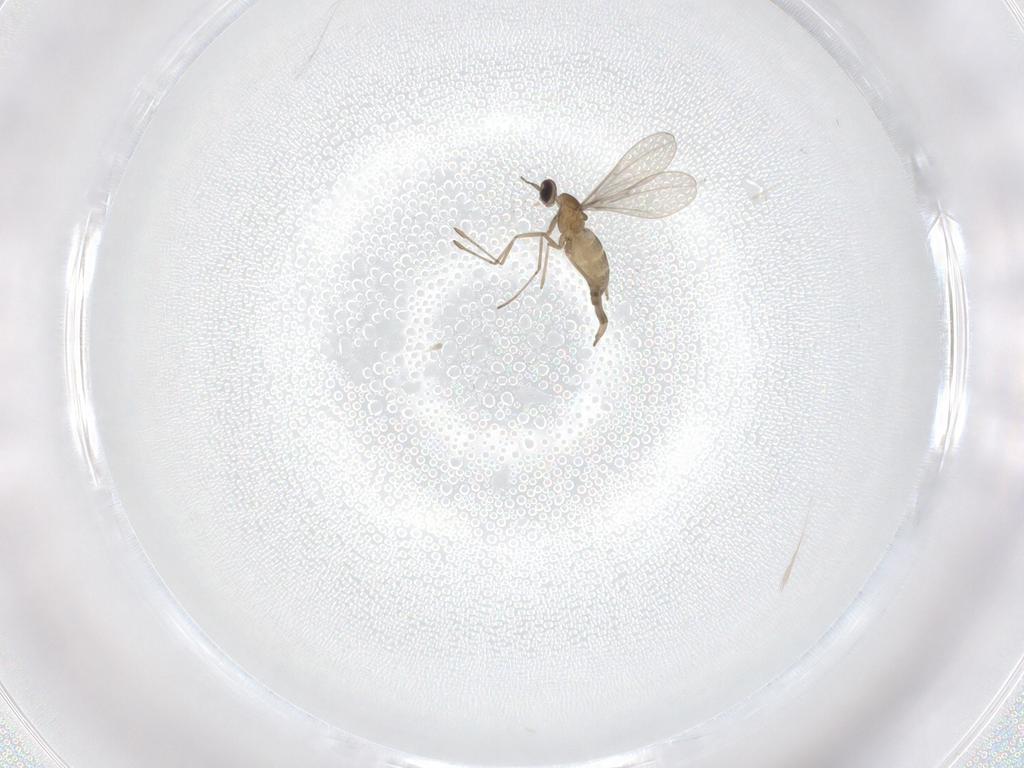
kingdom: Animalia
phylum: Arthropoda
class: Insecta
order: Diptera
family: Cecidomyiidae
